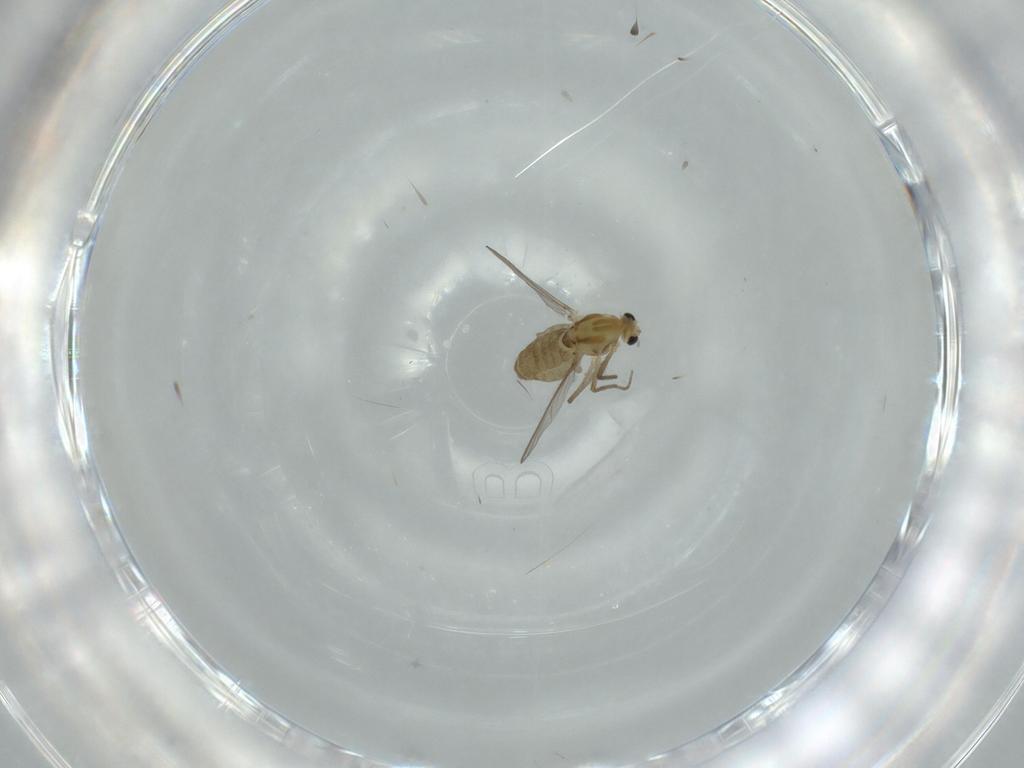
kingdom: Animalia
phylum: Arthropoda
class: Insecta
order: Diptera
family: Chironomidae
